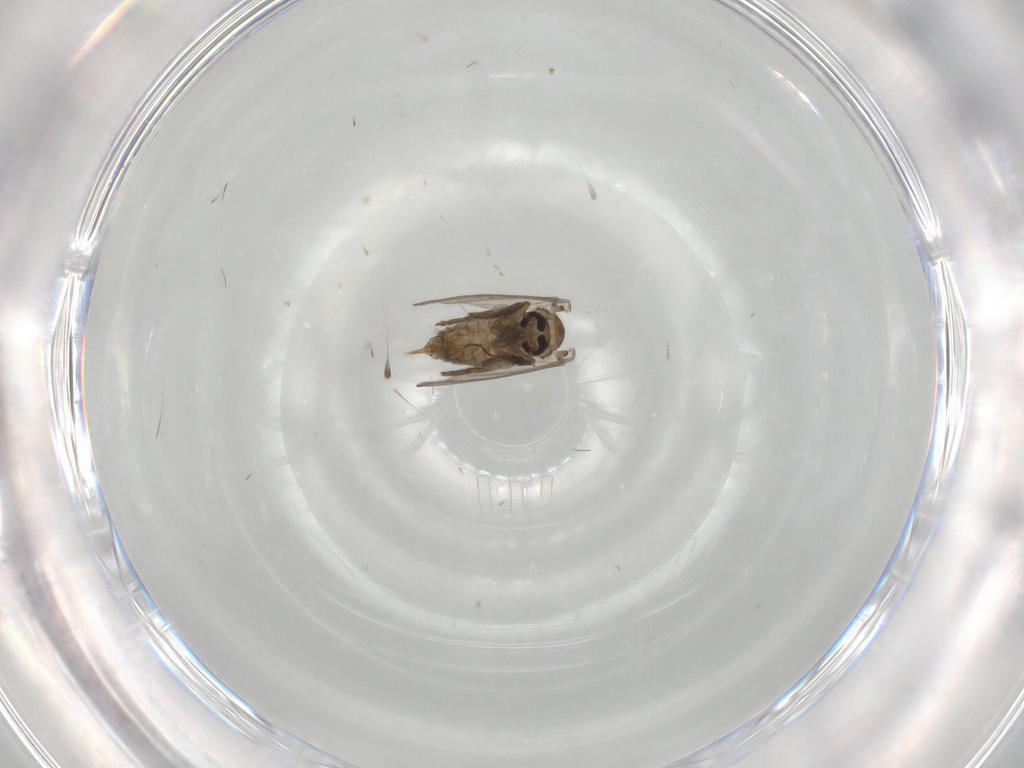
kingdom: Animalia
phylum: Arthropoda
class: Insecta
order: Diptera
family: Psychodidae
